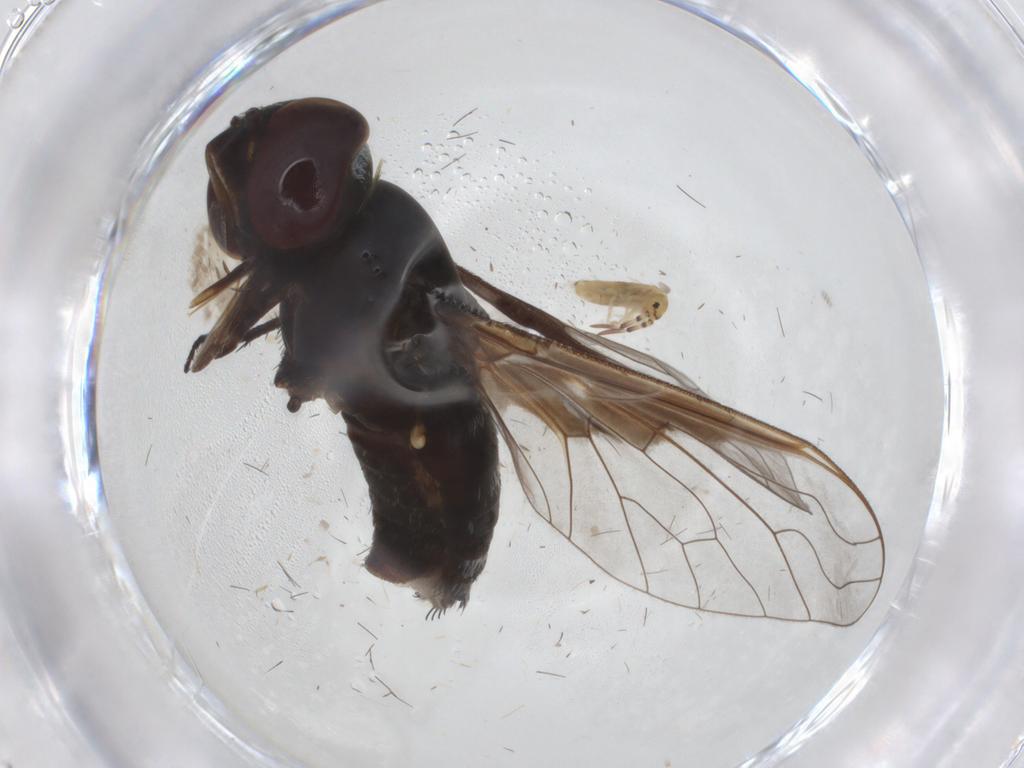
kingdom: Animalia
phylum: Arthropoda
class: Insecta
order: Diptera
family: Bombyliidae
